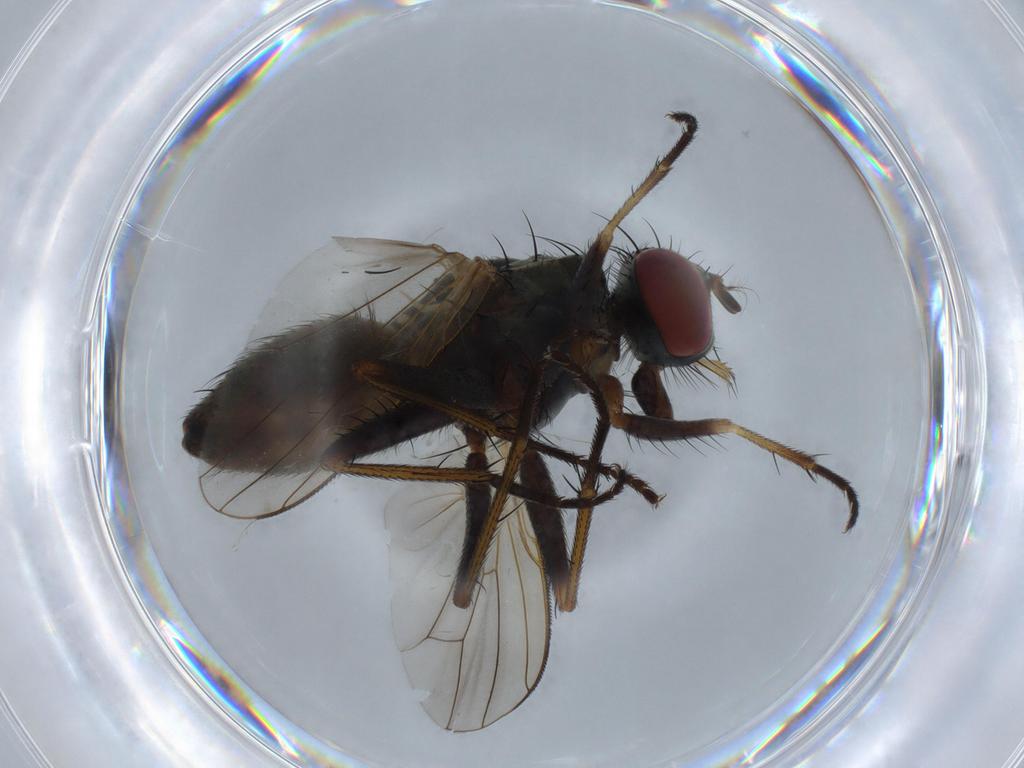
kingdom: Animalia
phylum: Arthropoda
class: Insecta
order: Diptera
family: Muscidae
